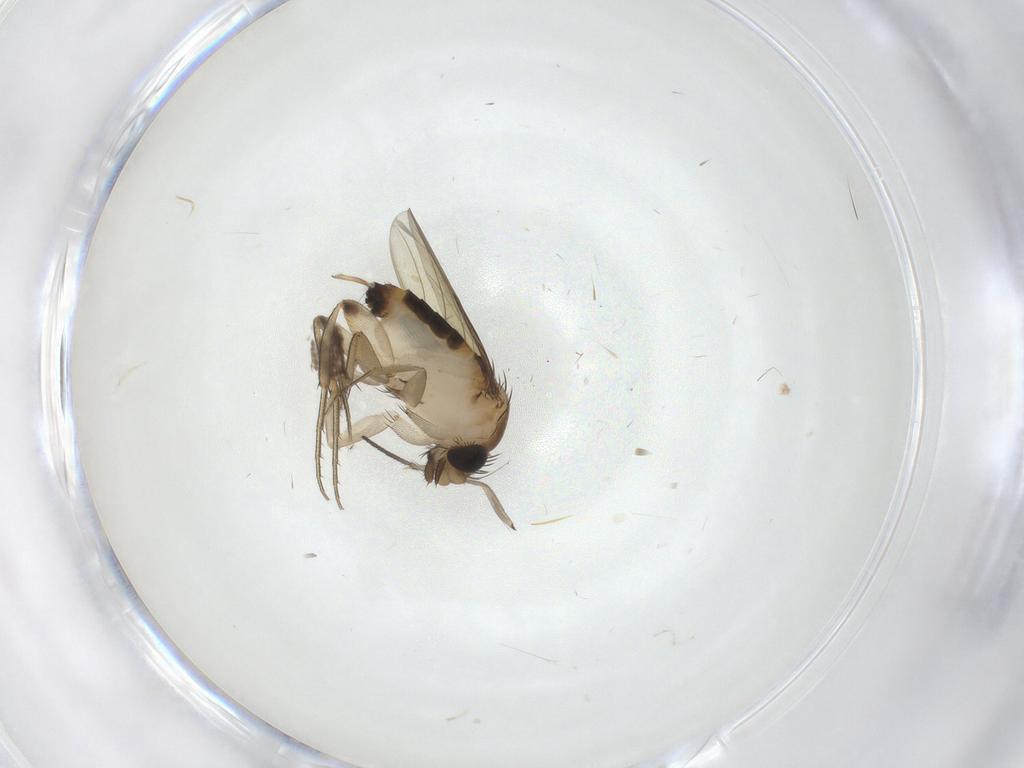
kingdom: Animalia
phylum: Arthropoda
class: Insecta
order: Diptera
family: Phoridae
